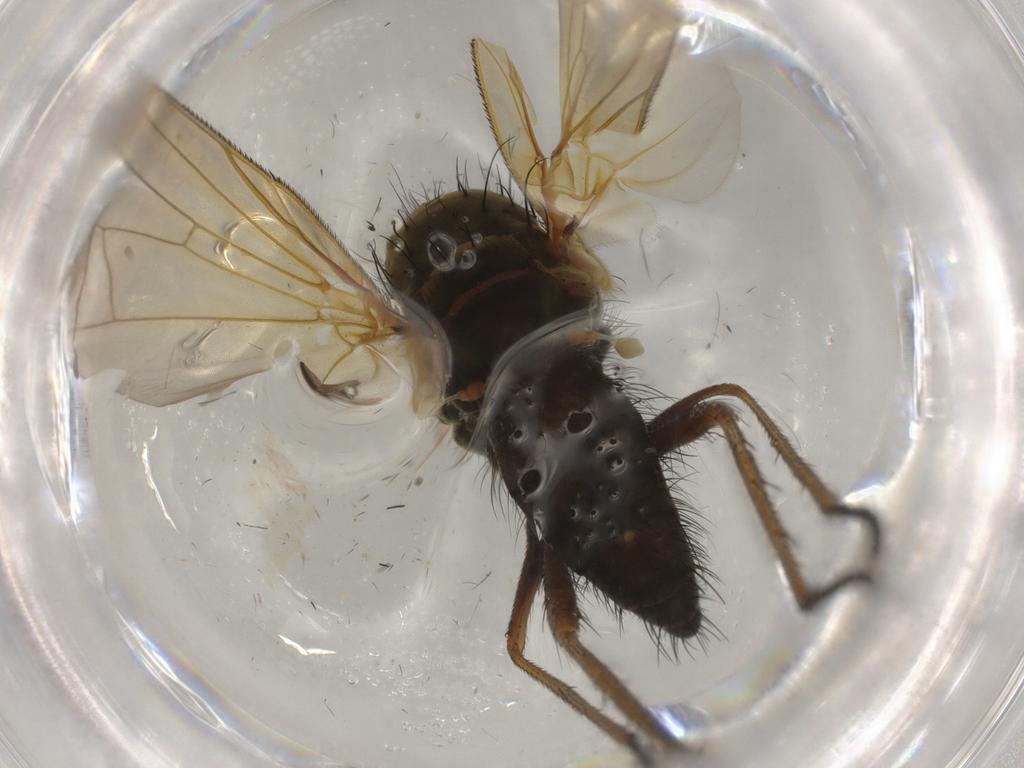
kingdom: Animalia
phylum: Arthropoda
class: Insecta
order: Diptera
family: Anthomyiidae
